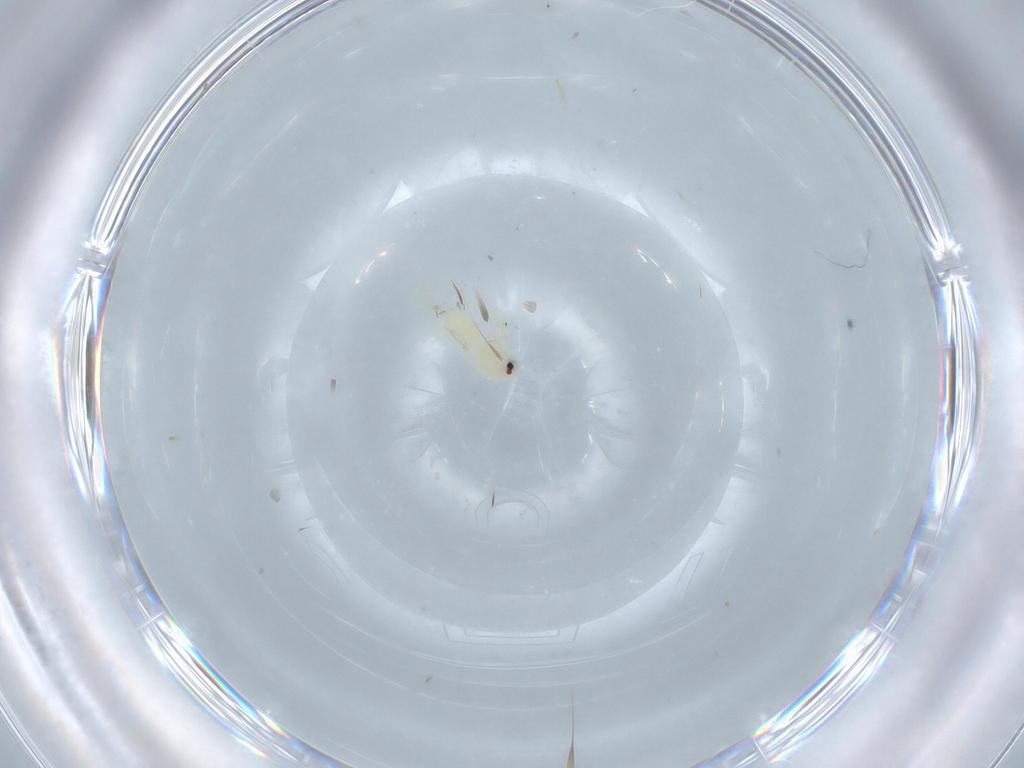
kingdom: Animalia
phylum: Arthropoda
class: Insecta
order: Hemiptera
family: Aleyrodidae
